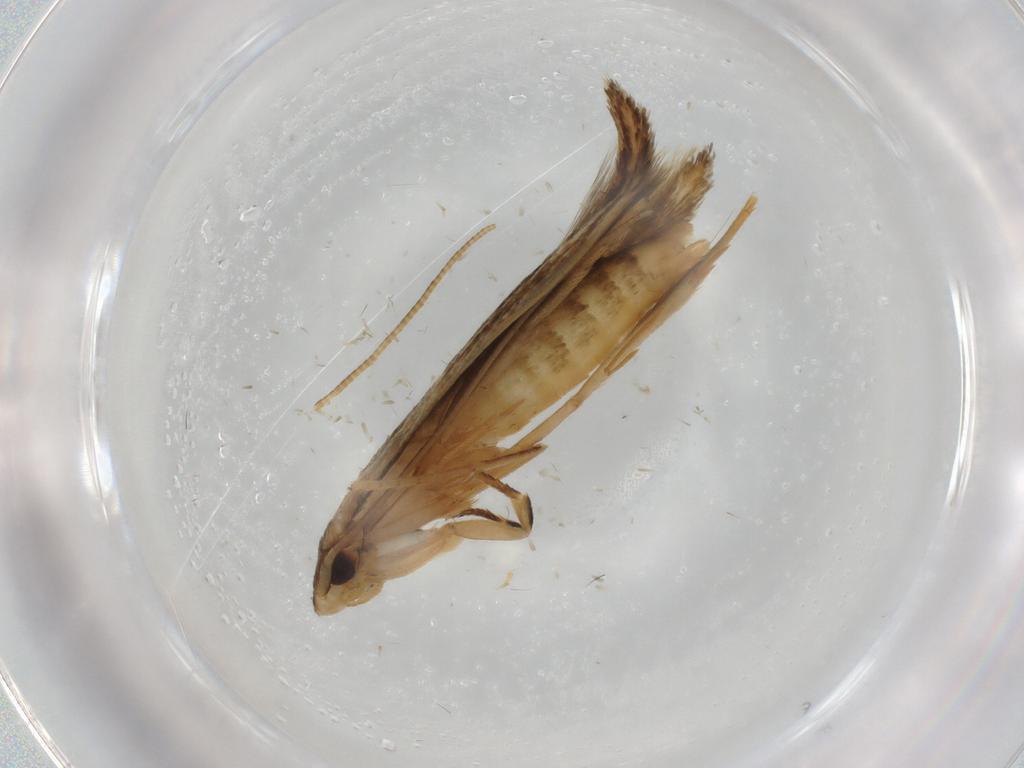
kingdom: Animalia
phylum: Arthropoda
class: Insecta
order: Lepidoptera
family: Tineidae
